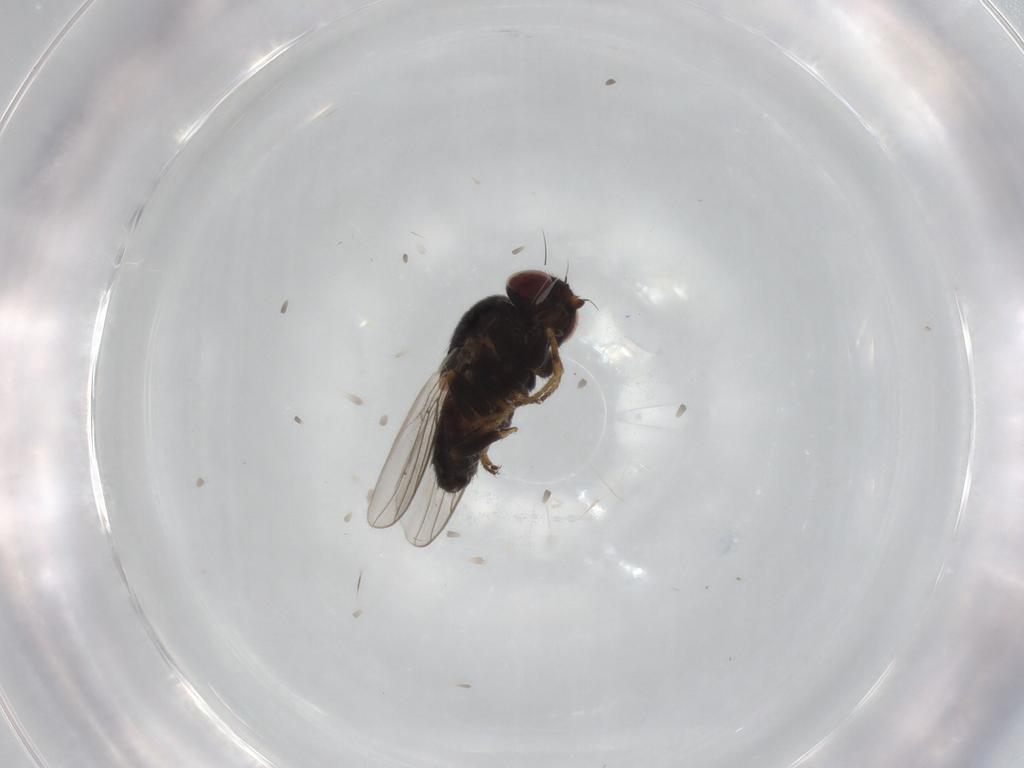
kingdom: Animalia
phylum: Arthropoda
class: Insecta
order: Diptera
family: Chloropidae
